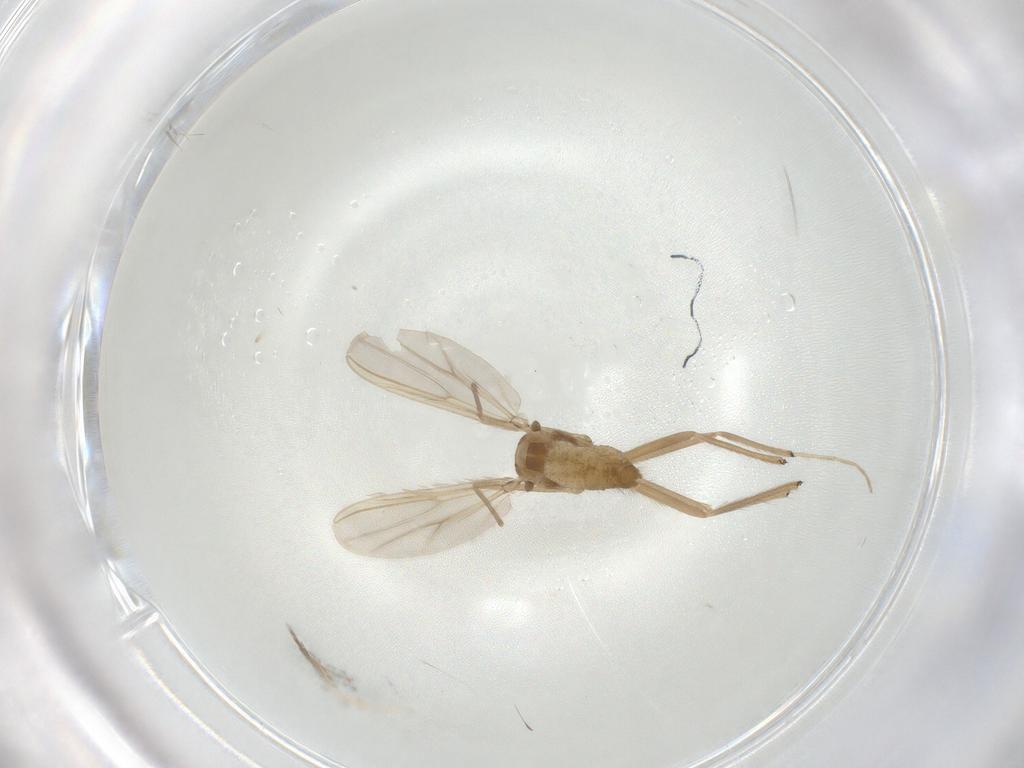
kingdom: Animalia
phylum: Arthropoda
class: Insecta
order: Diptera
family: Chironomidae
